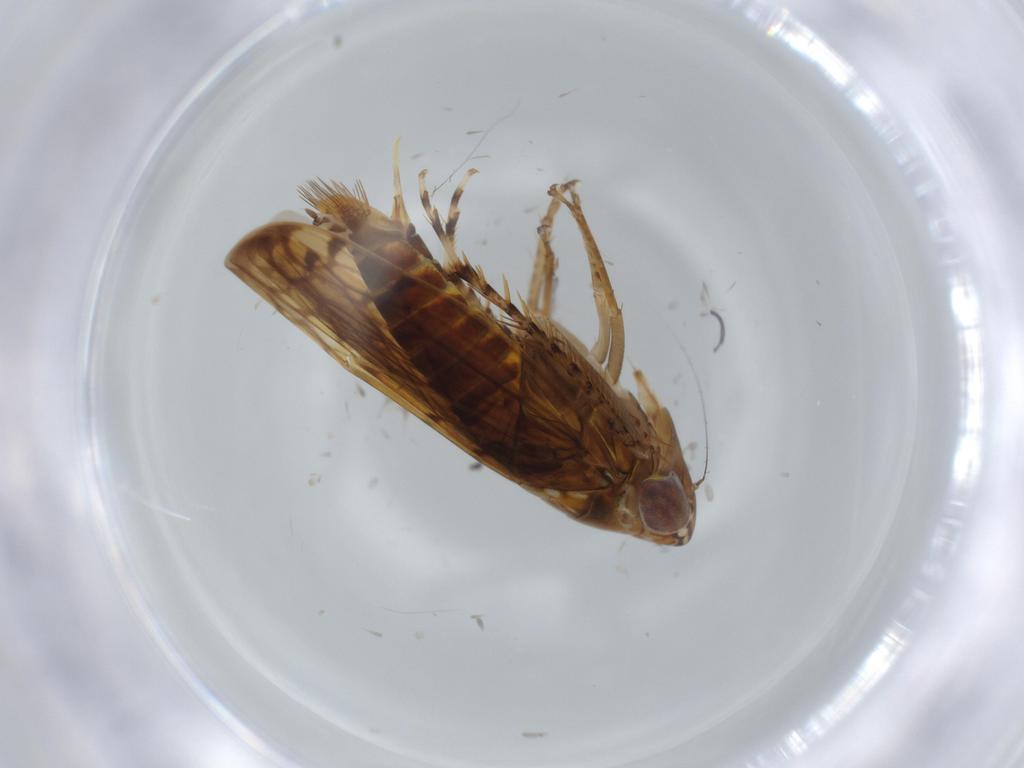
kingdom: Animalia
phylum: Arthropoda
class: Insecta
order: Hemiptera
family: Cicadellidae
